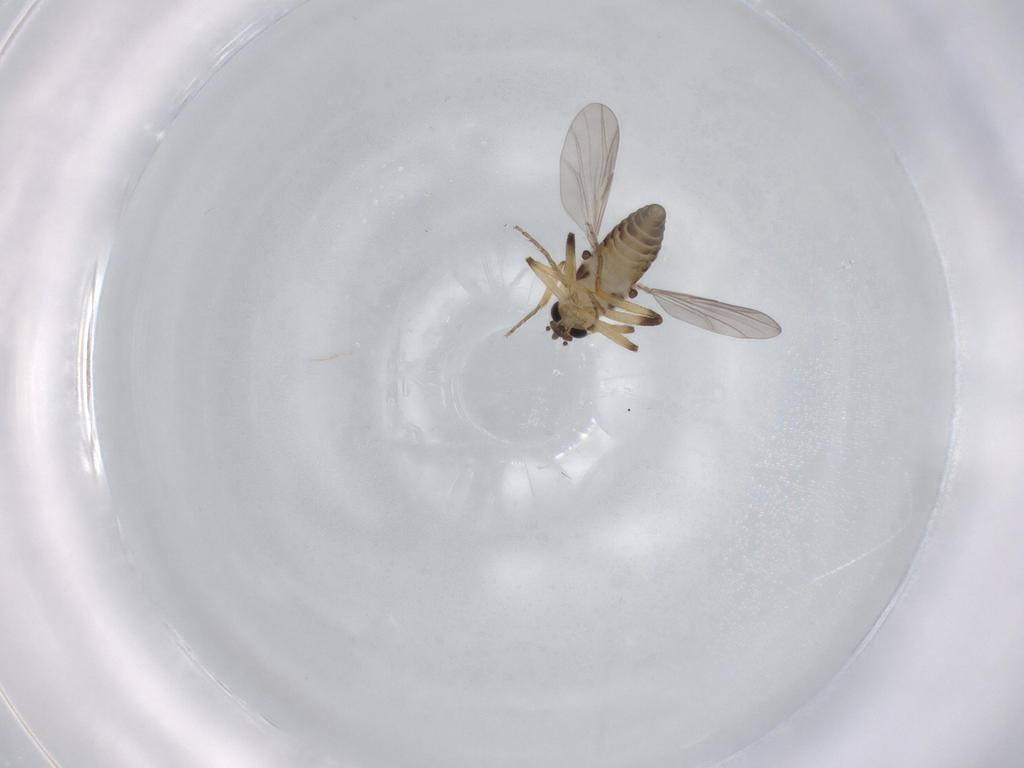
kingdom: Animalia
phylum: Arthropoda
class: Insecta
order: Diptera
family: Sciaridae
